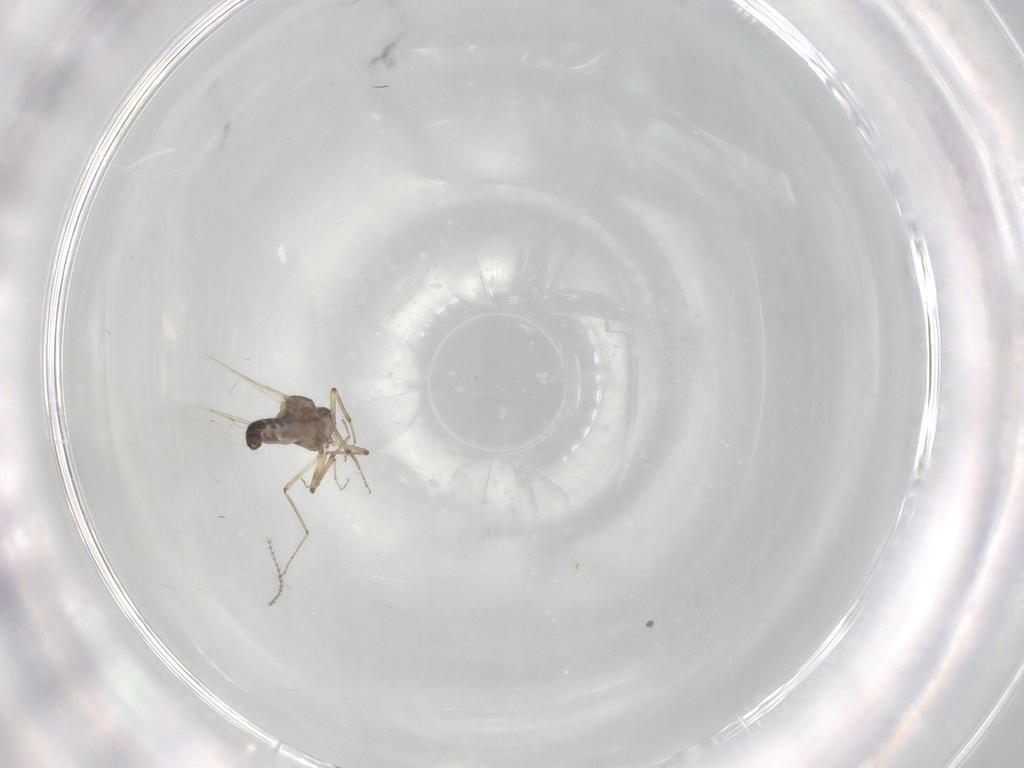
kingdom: Animalia
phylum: Arthropoda
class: Insecta
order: Diptera
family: Ceratopogonidae
